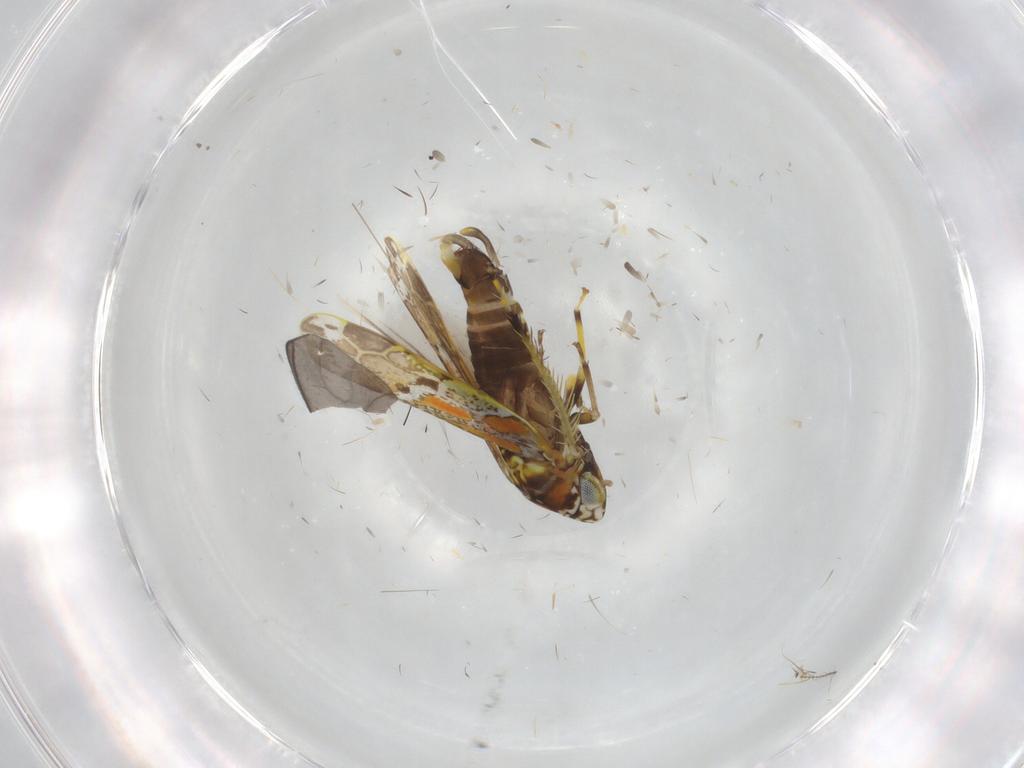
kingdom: Animalia
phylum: Arthropoda
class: Insecta
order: Hemiptera
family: Cicadellidae
